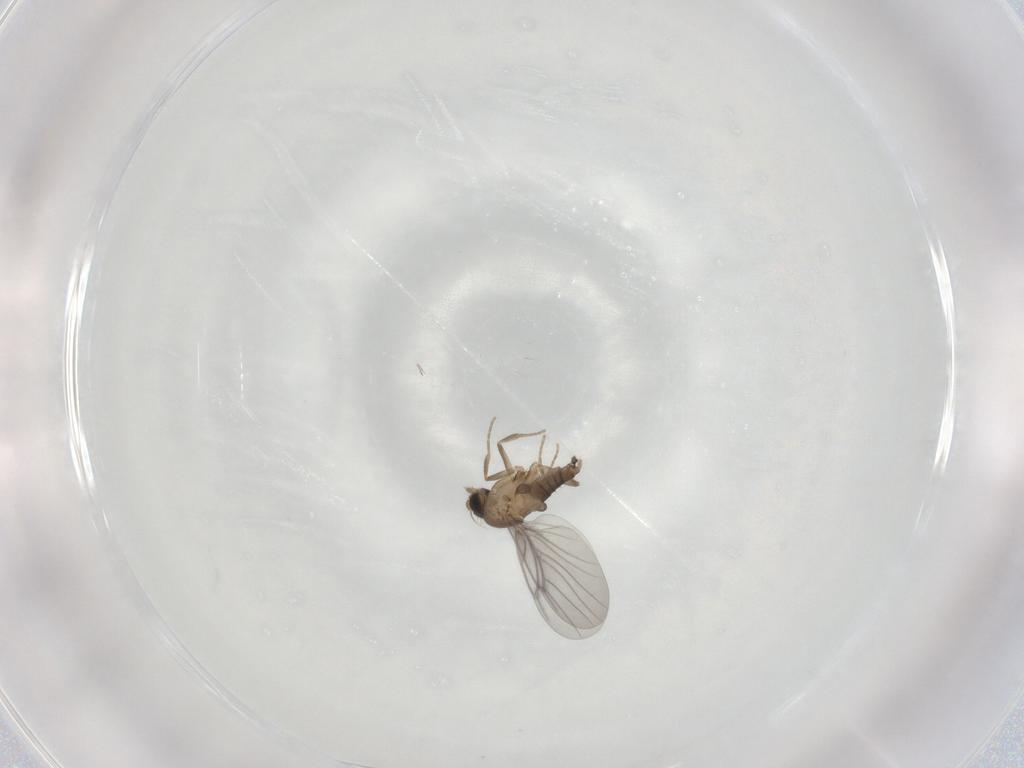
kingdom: Animalia
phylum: Arthropoda
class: Insecta
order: Diptera
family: Ceratopogonidae
